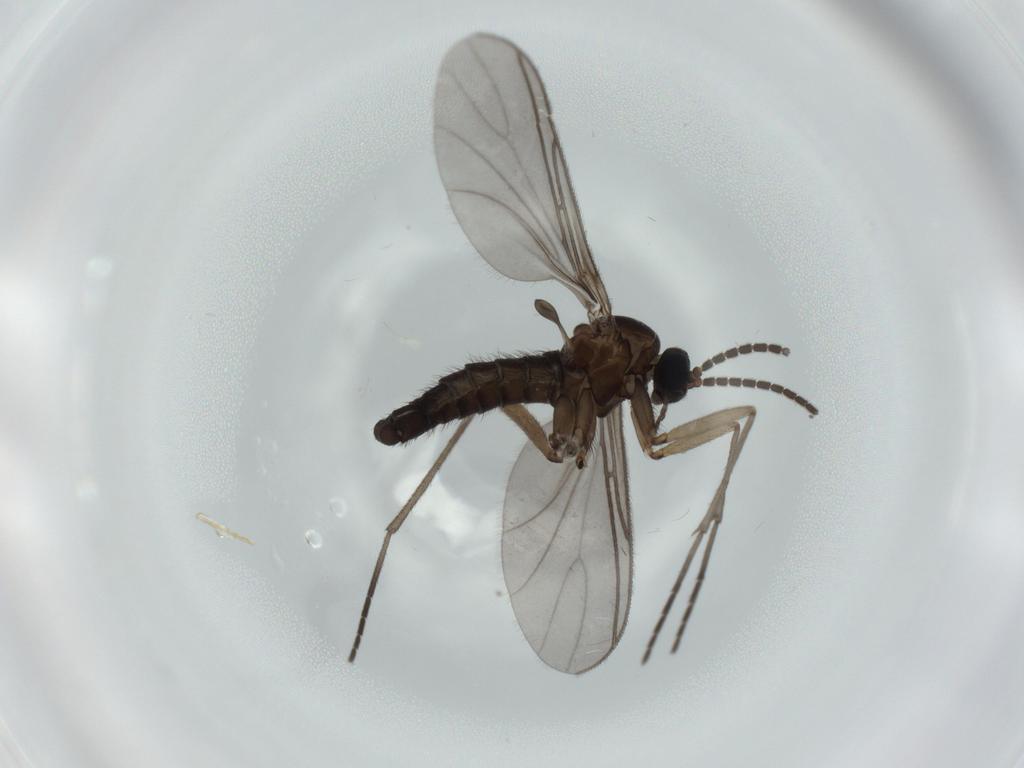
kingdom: Animalia
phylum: Arthropoda
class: Insecta
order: Diptera
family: Sciaridae
